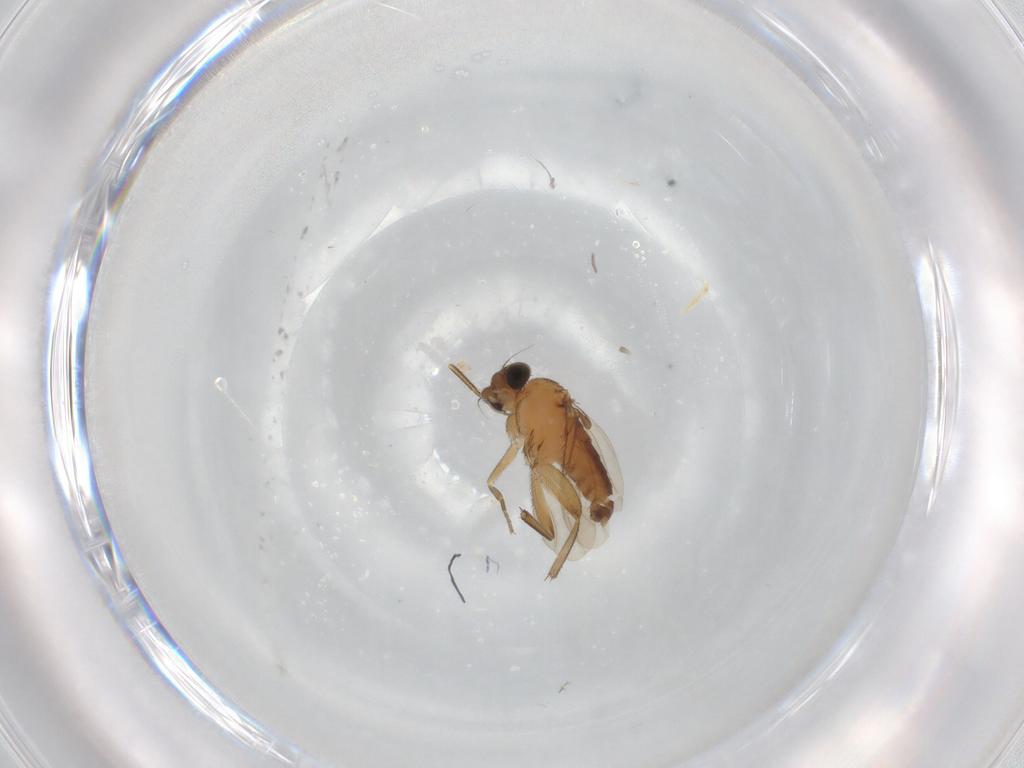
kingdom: Animalia
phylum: Arthropoda
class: Insecta
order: Diptera
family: Phoridae
